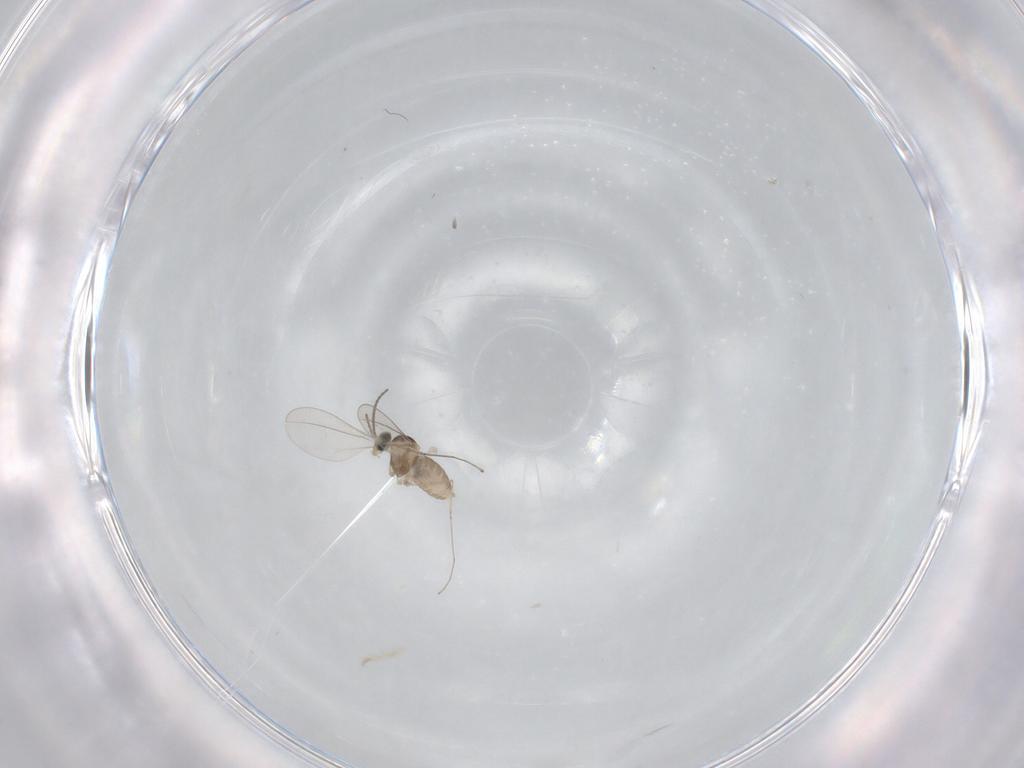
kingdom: Animalia
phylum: Arthropoda
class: Insecta
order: Diptera
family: Cecidomyiidae
